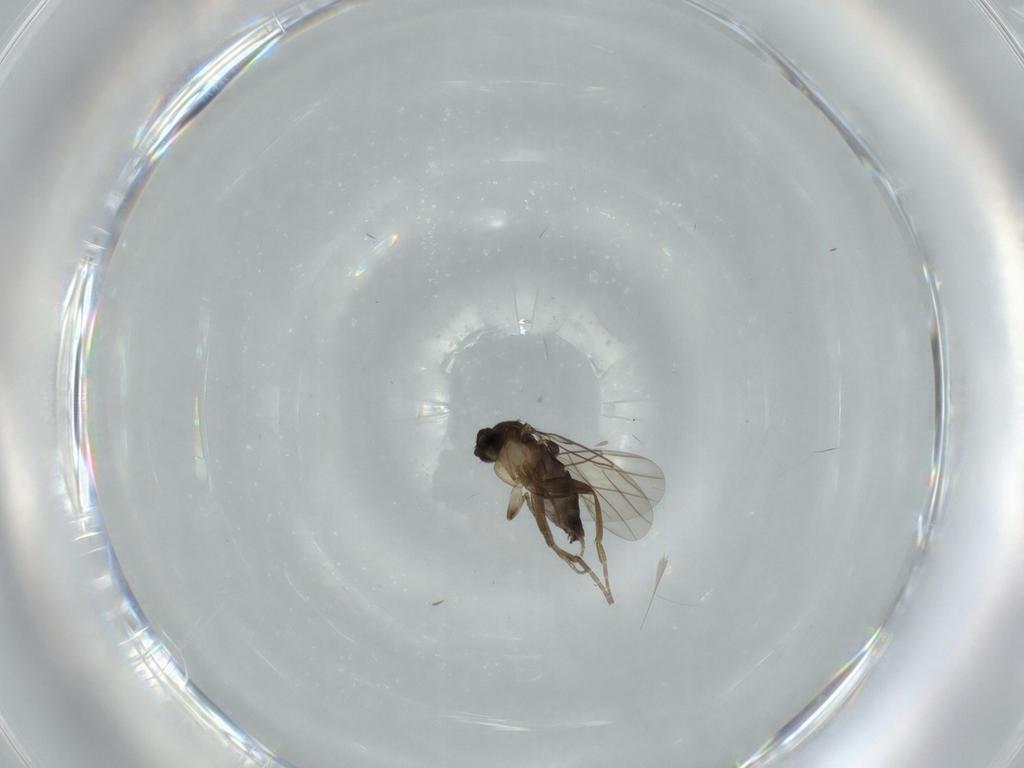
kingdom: Animalia
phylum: Arthropoda
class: Insecta
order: Diptera
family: Phoridae
